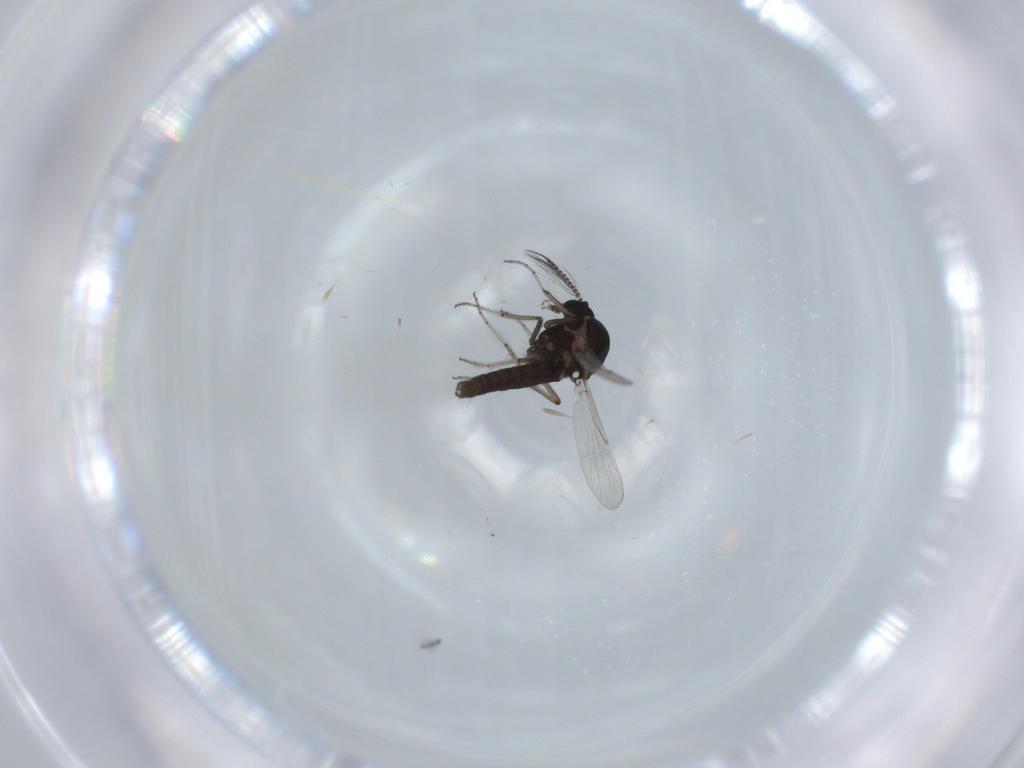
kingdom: Animalia
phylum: Arthropoda
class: Insecta
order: Diptera
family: Ceratopogonidae
